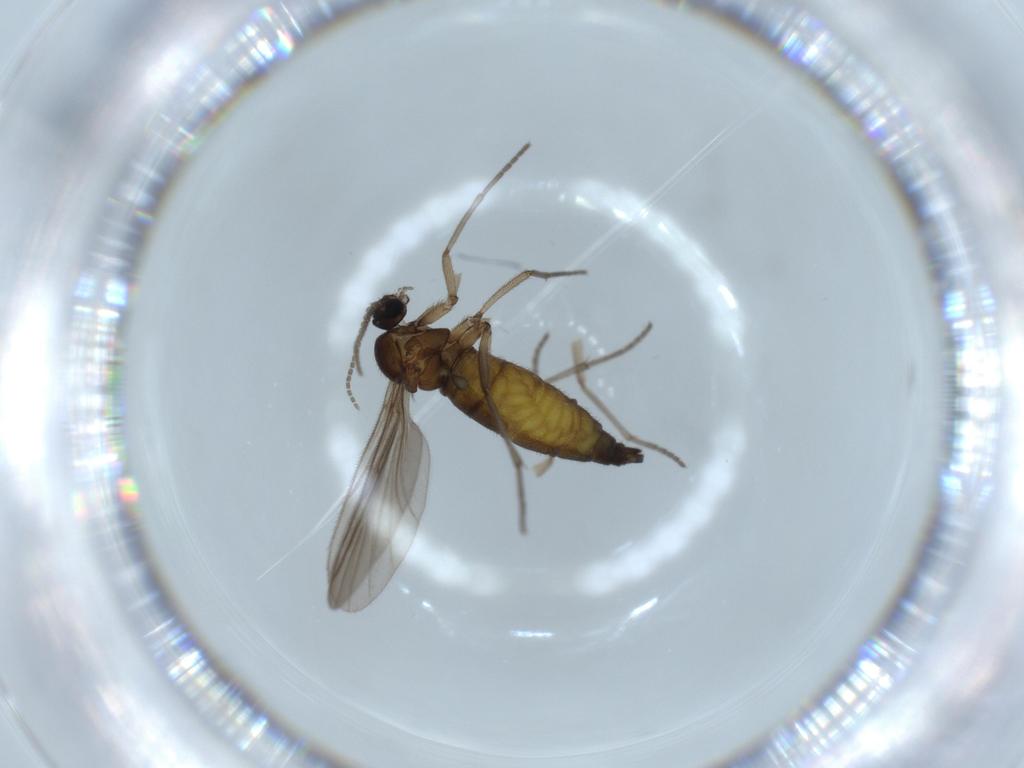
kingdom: Animalia
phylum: Arthropoda
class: Insecta
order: Diptera
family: Sciaridae
